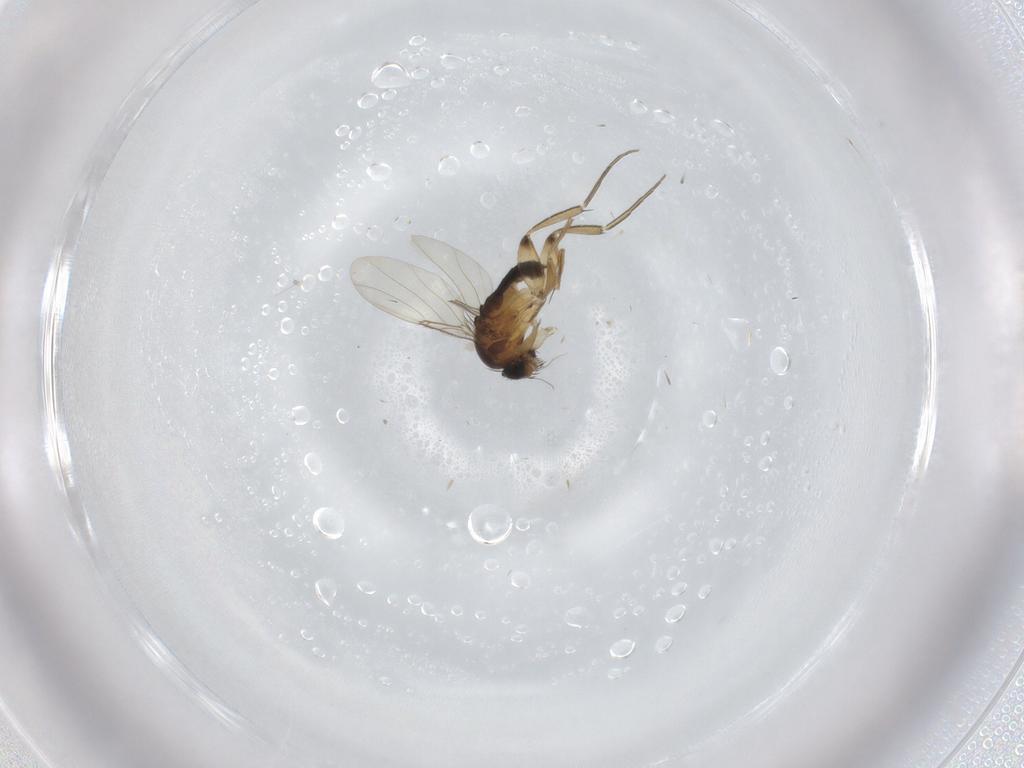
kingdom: Animalia
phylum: Arthropoda
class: Insecta
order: Diptera
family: Phoridae
